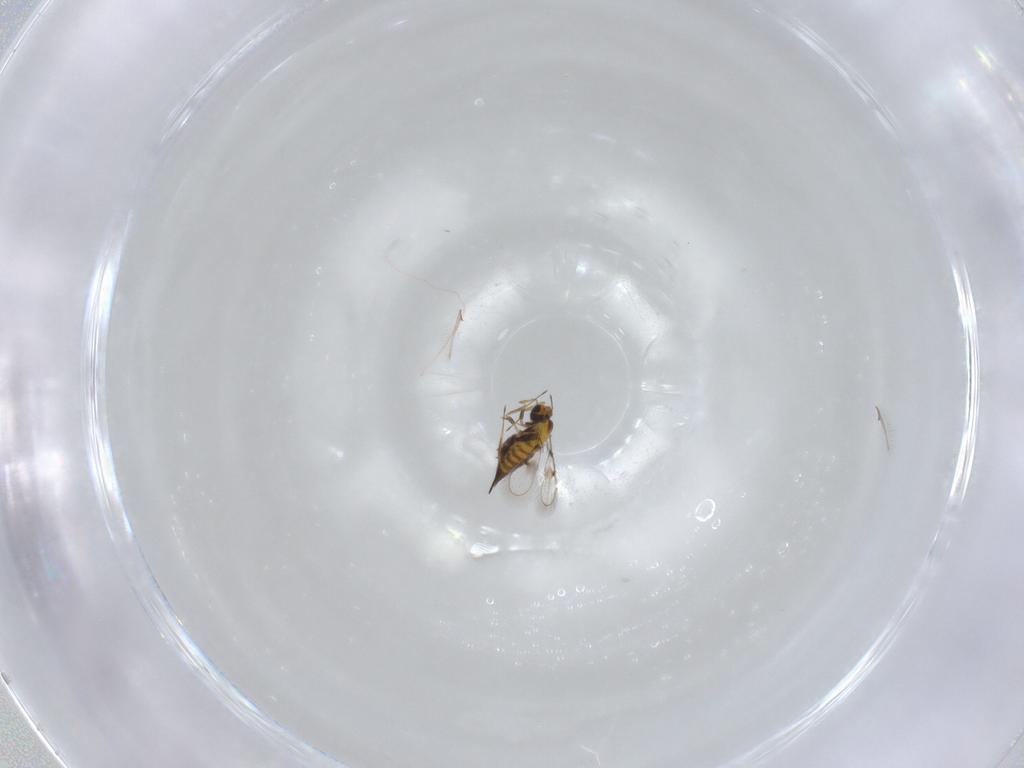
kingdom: Animalia
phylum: Arthropoda
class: Insecta
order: Hymenoptera
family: Trichogrammatidae
